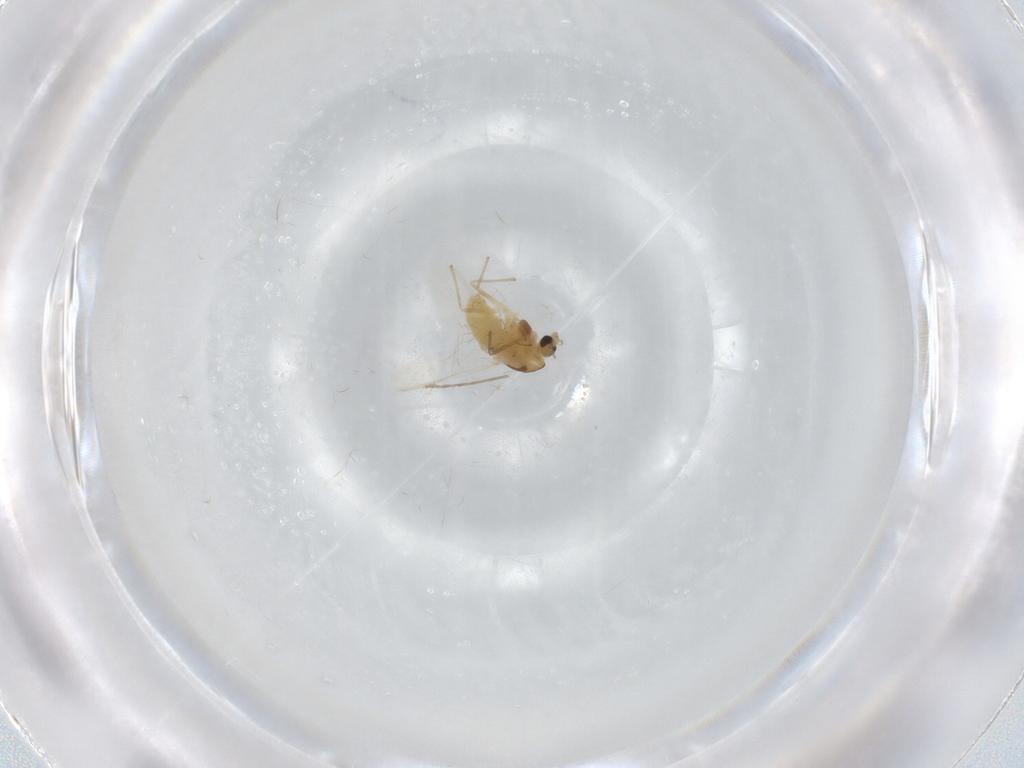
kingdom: Animalia
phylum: Arthropoda
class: Insecta
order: Diptera
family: Chironomidae
